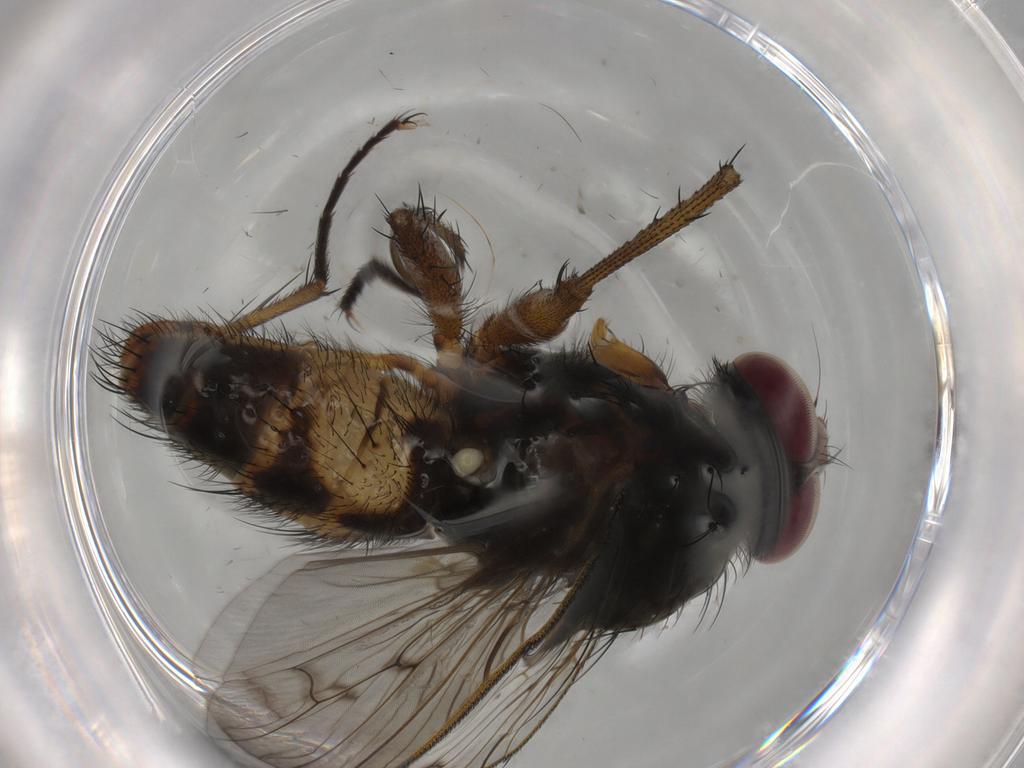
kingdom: Animalia
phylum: Arthropoda
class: Insecta
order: Diptera
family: Anthomyiidae
